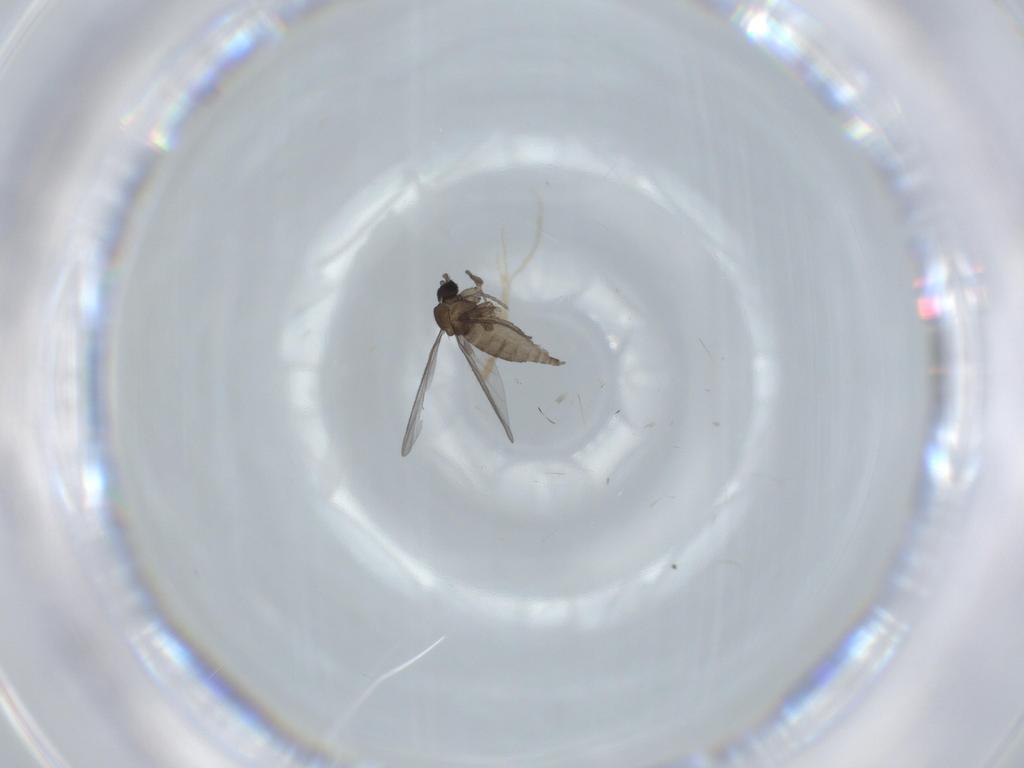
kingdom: Animalia
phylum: Arthropoda
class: Insecta
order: Diptera
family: Sciaridae
